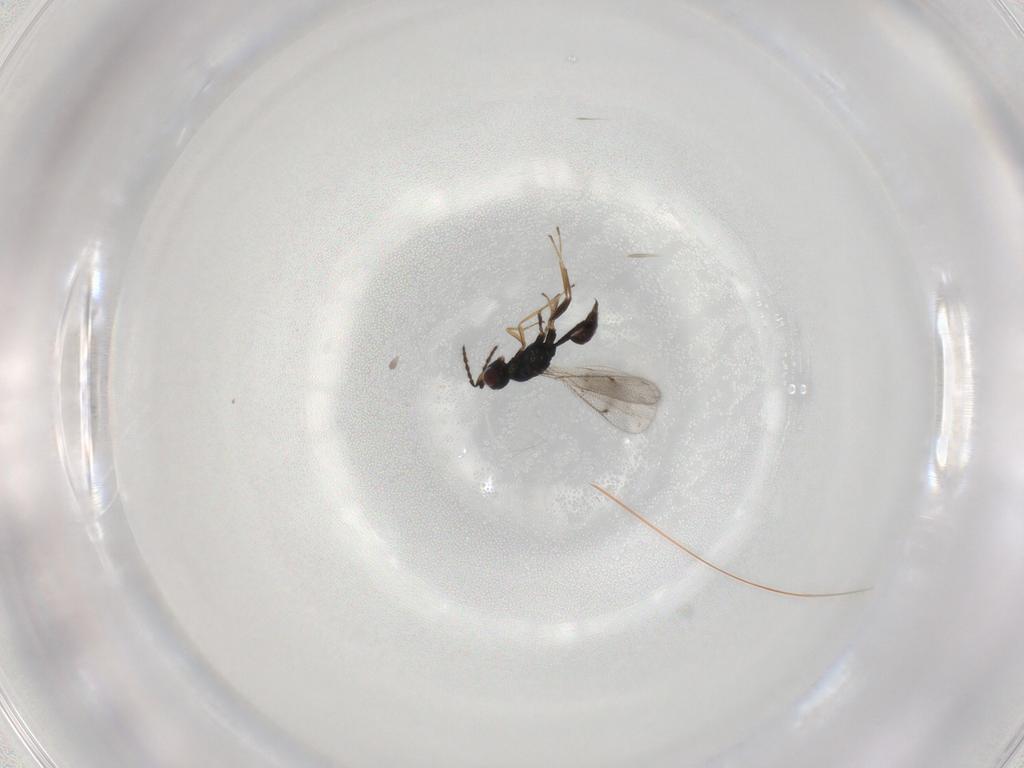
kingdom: Animalia
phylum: Arthropoda
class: Insecta
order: Hymenoptera
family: Eulophidae
